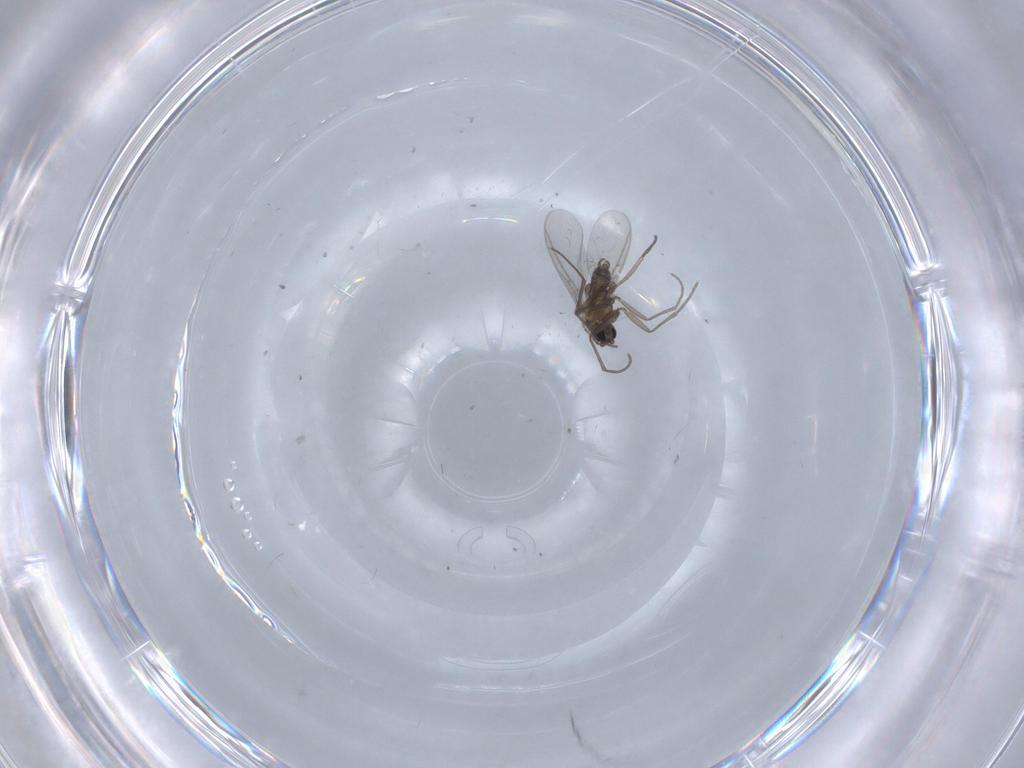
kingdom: Animalia
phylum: Arthropoda
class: Insecta
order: Diptera
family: Sciaridae
